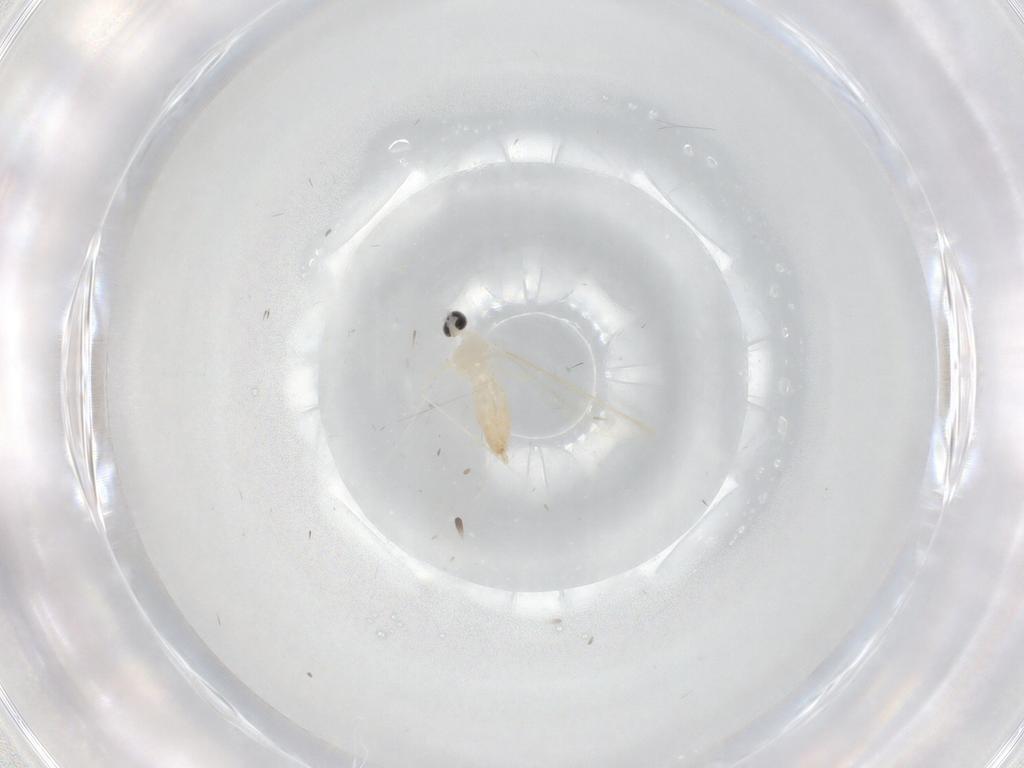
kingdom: Animalia
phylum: Arthropoda
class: Insecta
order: Diptera
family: Cecidomyiidae
